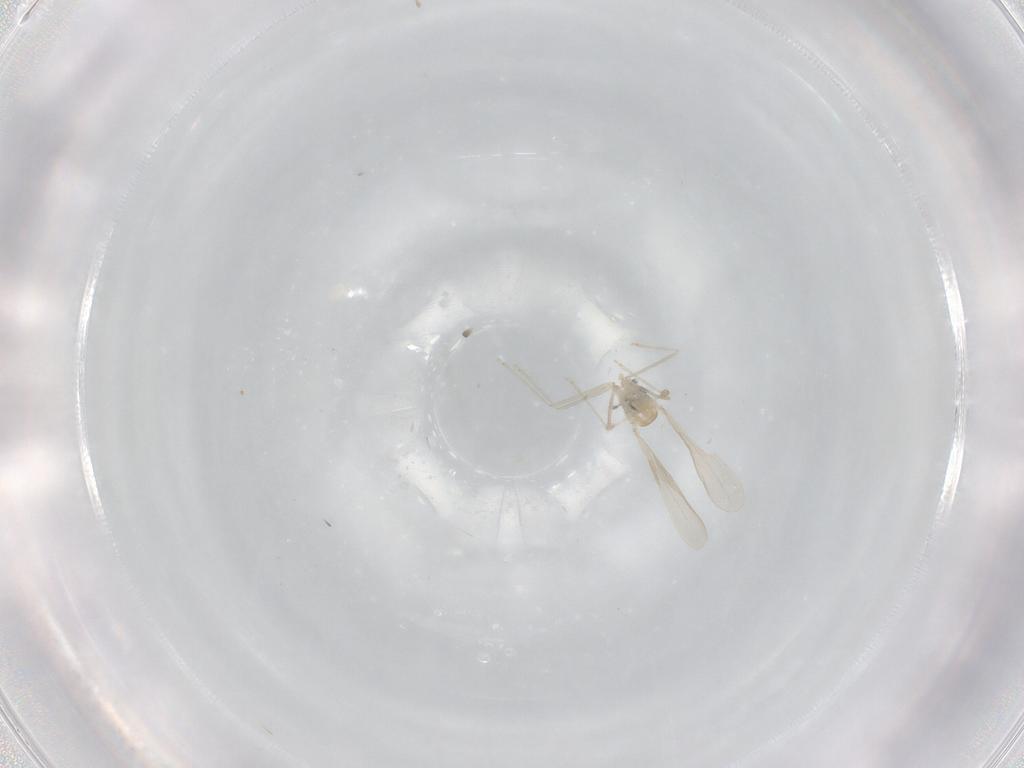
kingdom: Animalia
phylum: Arthropoda
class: Insecta
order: Diptera
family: Cecidomyiidae
